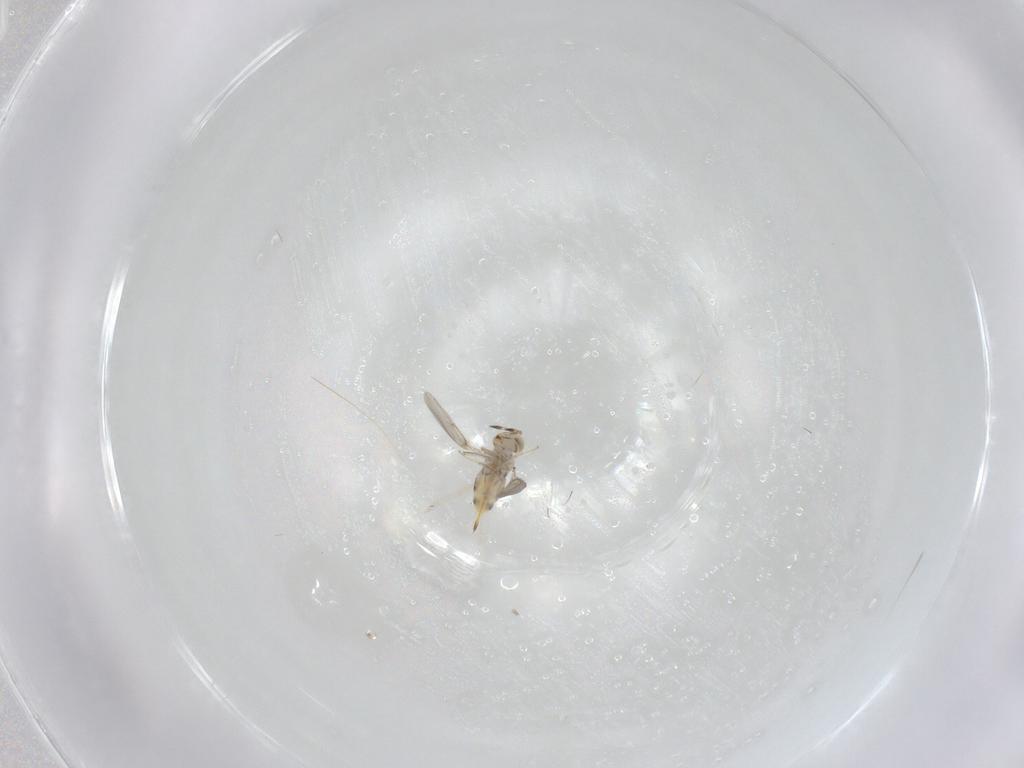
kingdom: Animalia
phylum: Arthropoda
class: Insecta
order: Hymenoptera
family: Aphelinidae
